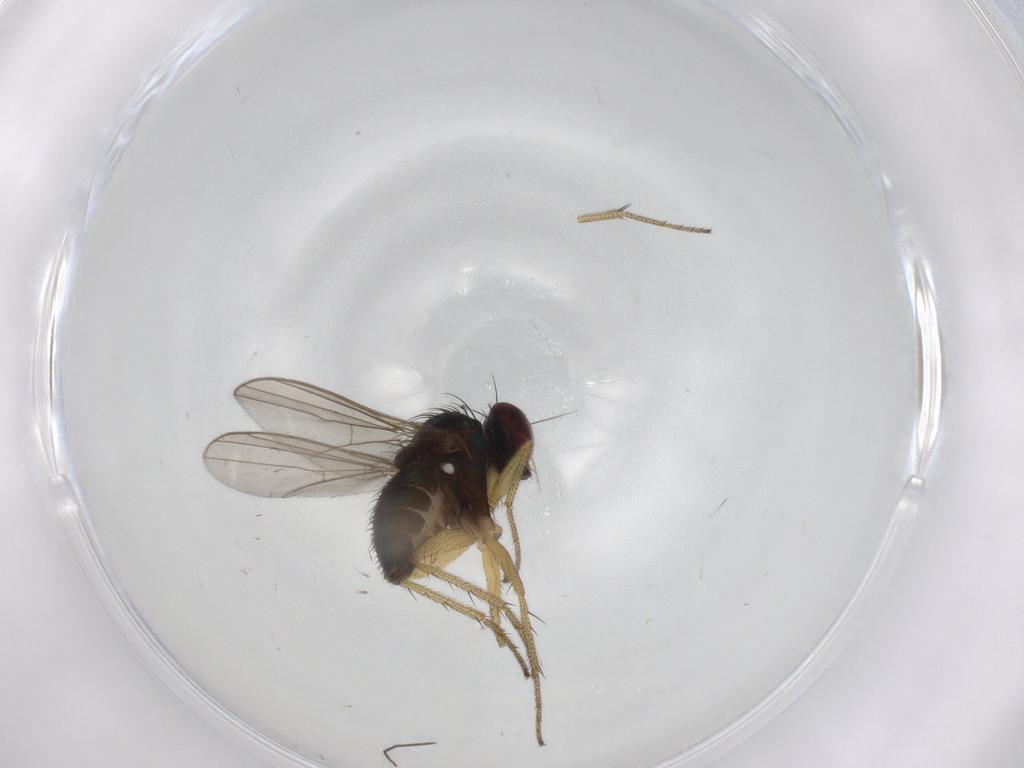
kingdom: Animalia
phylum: Arthropoda
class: Insecta
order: Diptera
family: Dolichopodidae
